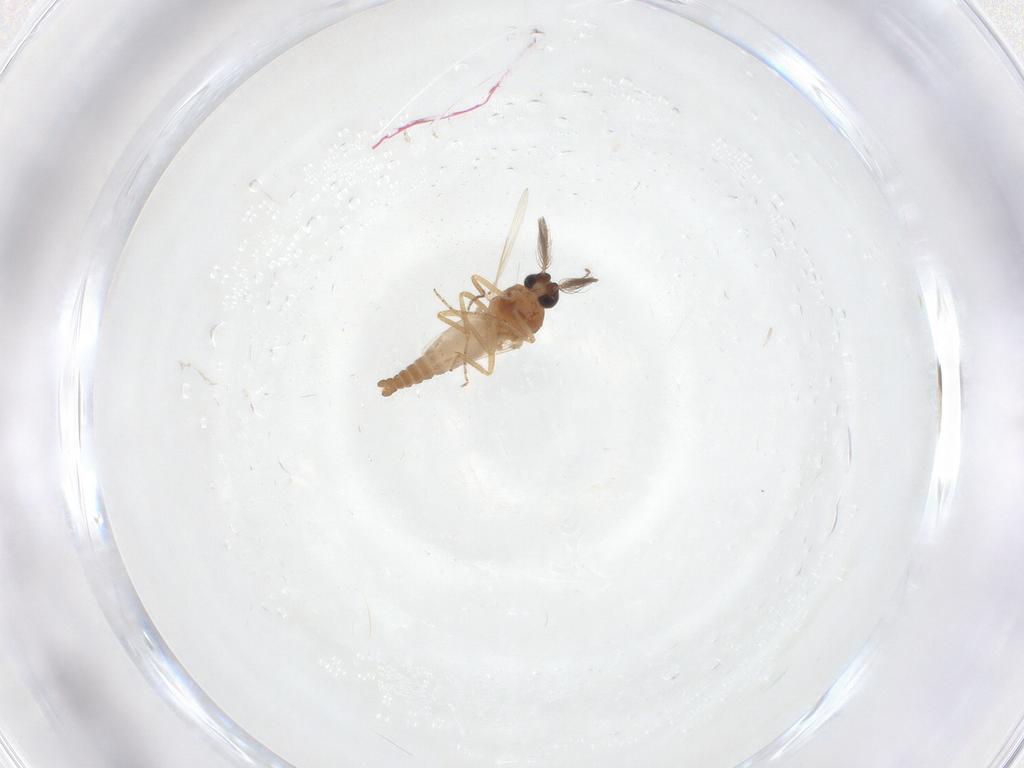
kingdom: Animalia
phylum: Arthropoda
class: Insecta
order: Diptera
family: Ceratopogonidae
